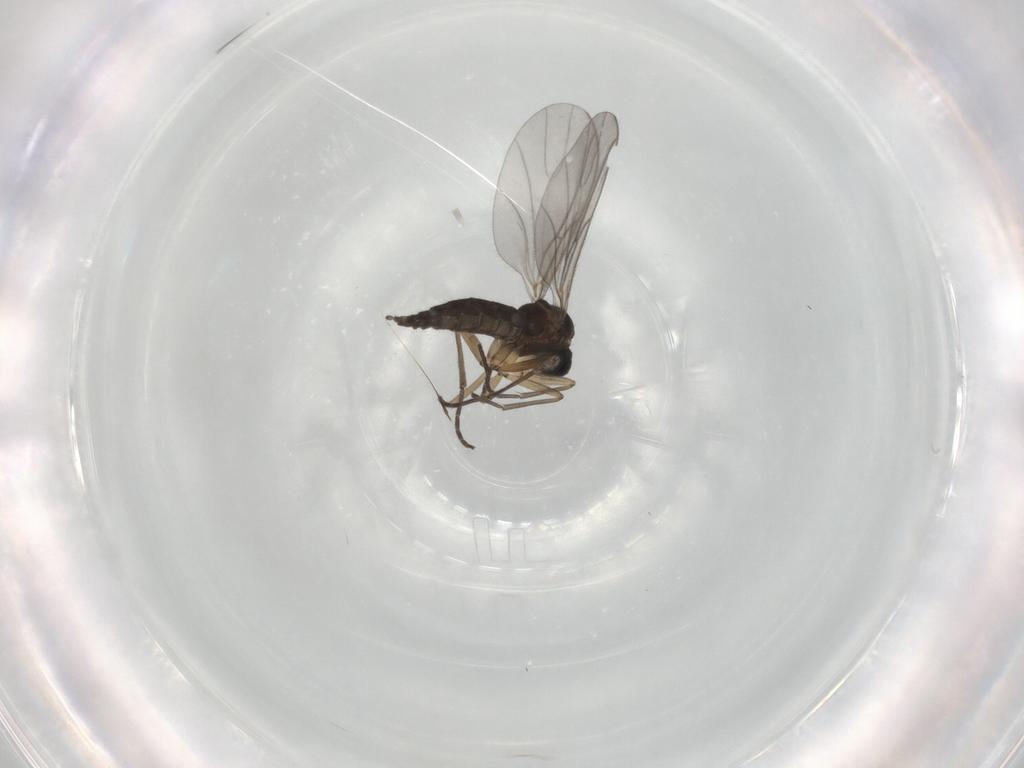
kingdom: Animalia
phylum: Arthropoda
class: Insecta
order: Diptera
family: Sciaridae
